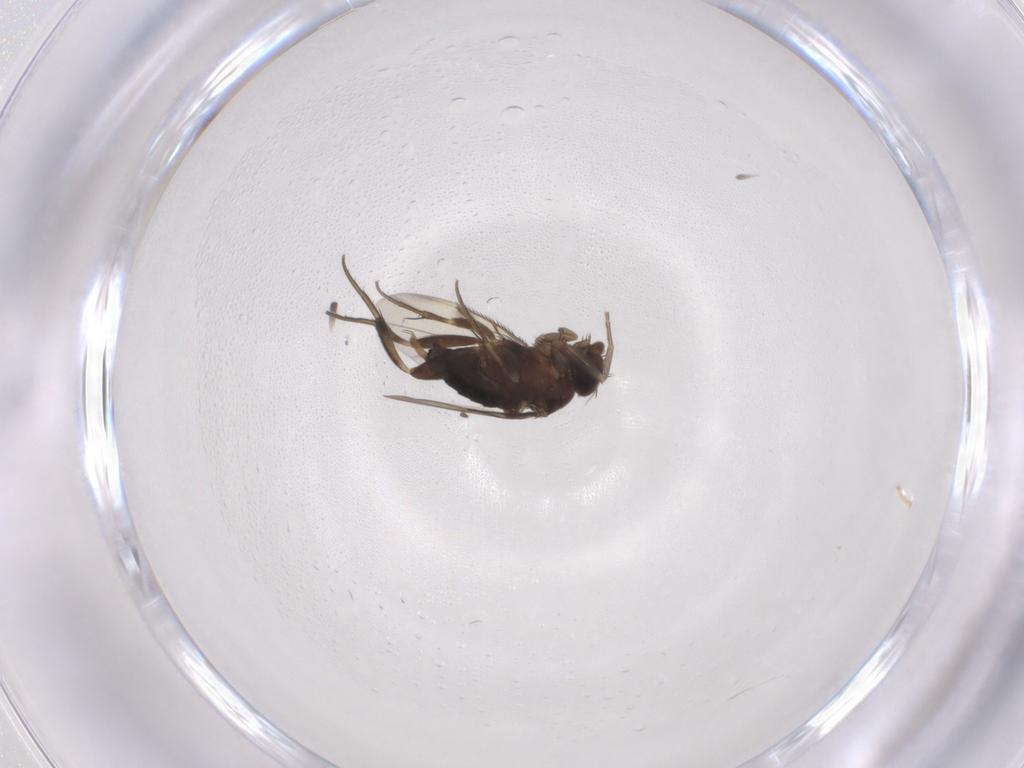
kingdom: Animalia
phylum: Arthropoda
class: Insecta
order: Diptera
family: Phoridae
